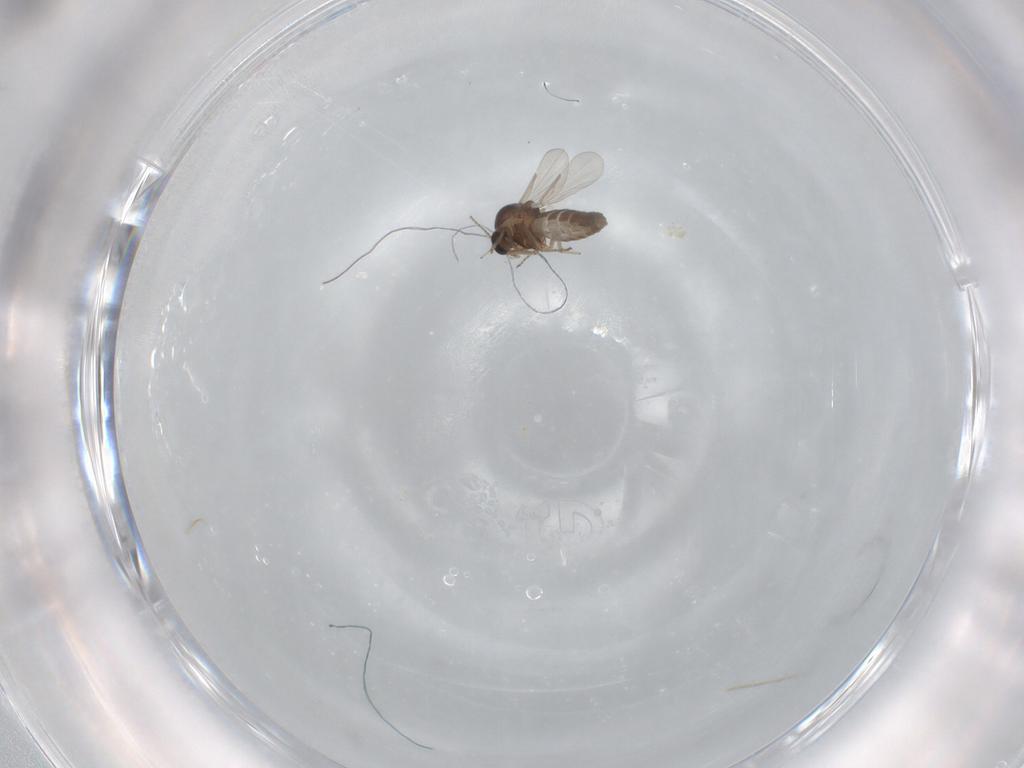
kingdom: Animalia
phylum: Arthropoda
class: Insecta
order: Diptera
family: Ceratopogonidae
